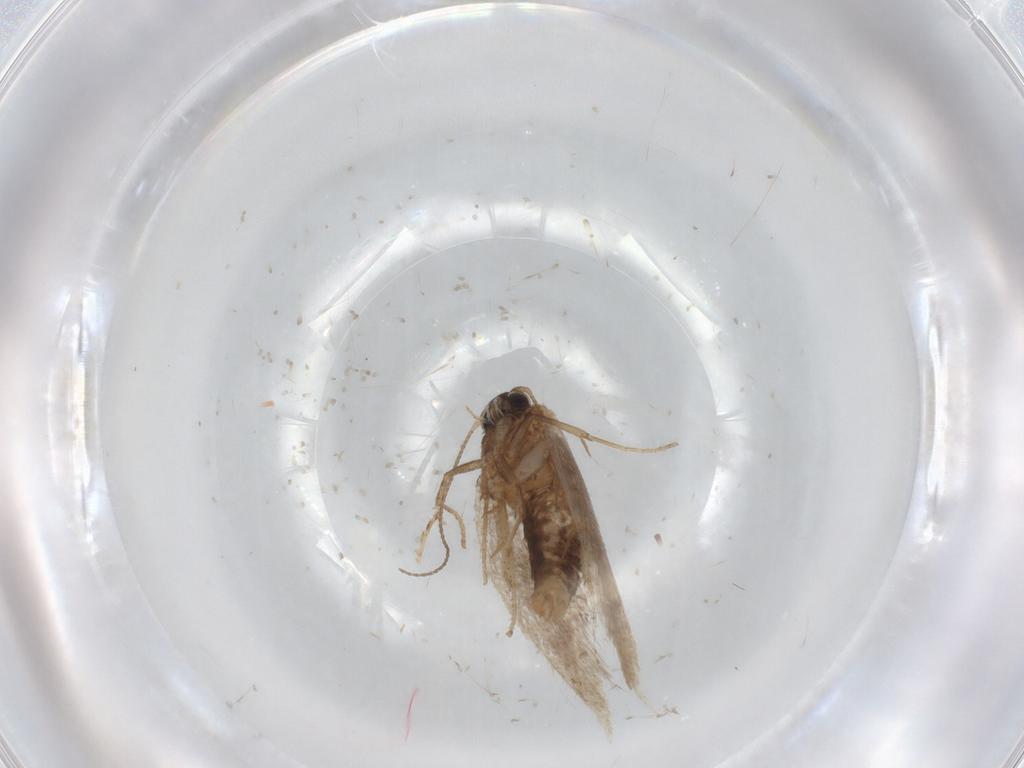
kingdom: Animalia
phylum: Arthropoda
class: Insecta
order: Lepidoptera
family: Nepticulidae
